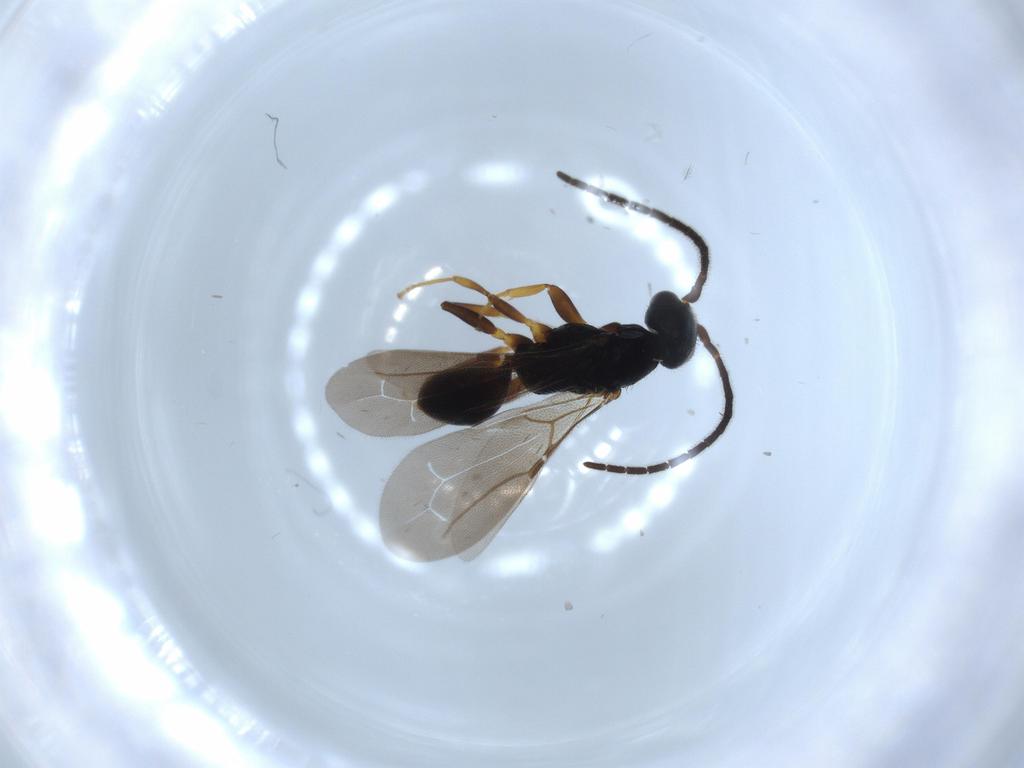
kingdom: Animalia
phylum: Arthropoda
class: Insecta
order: Hymenoptera
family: Bethylidae
